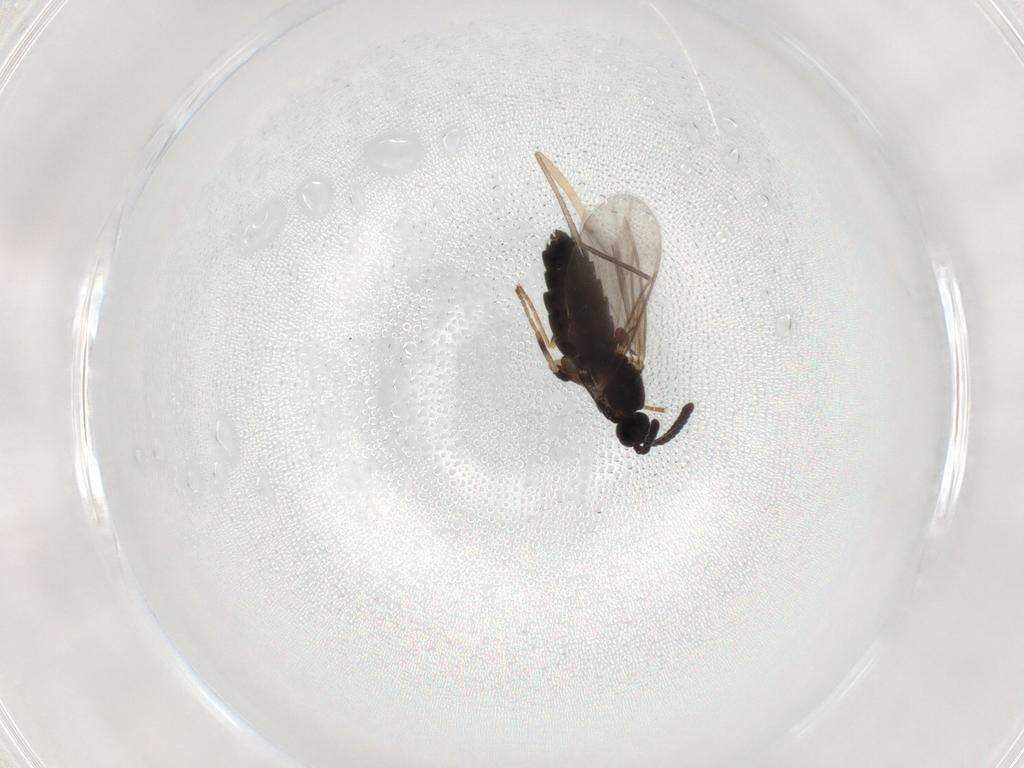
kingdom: Animalia
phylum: Arthropoda
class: Insecta
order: Diptera
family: Scatopsidae
